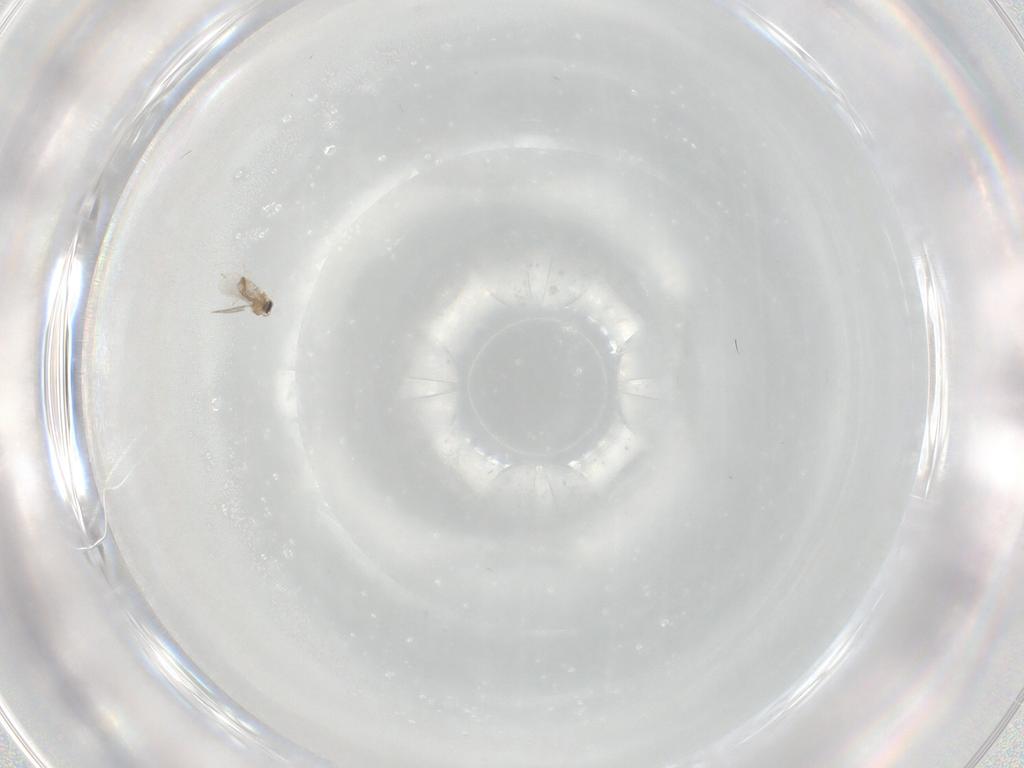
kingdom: Animalia
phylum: Arthropoda
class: Insecta
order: Diptera
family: Cecidomyiidae
